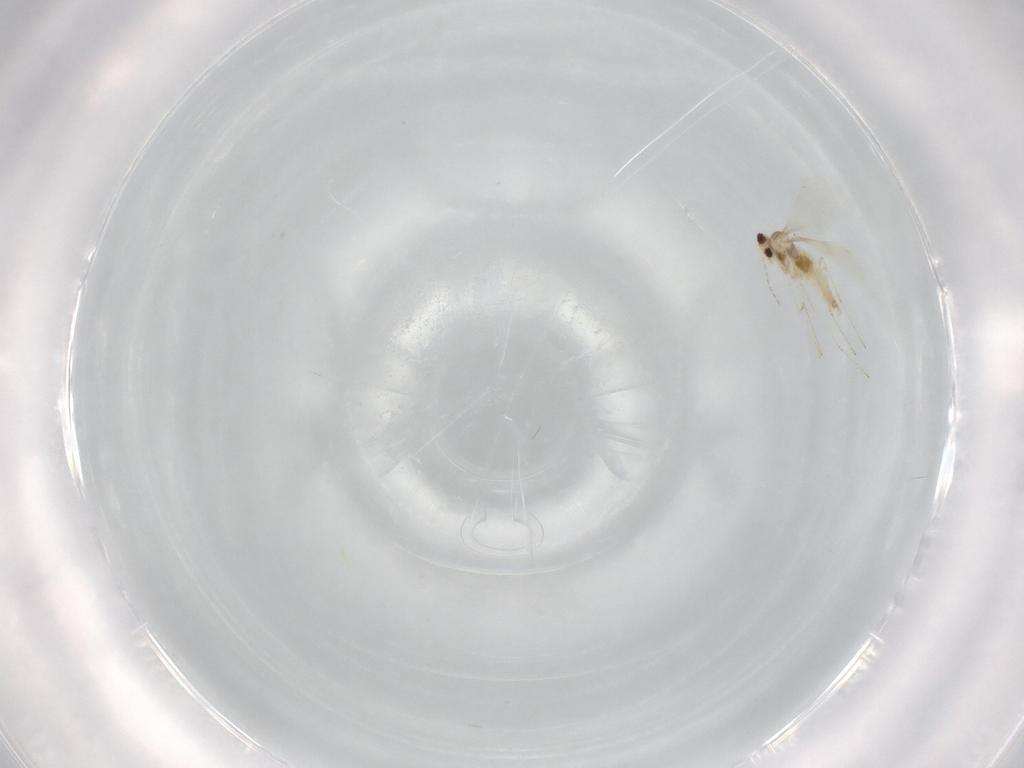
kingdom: Animalia
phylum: Arthropoda
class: Insecta
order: Diptera
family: Cecidomyiidae
